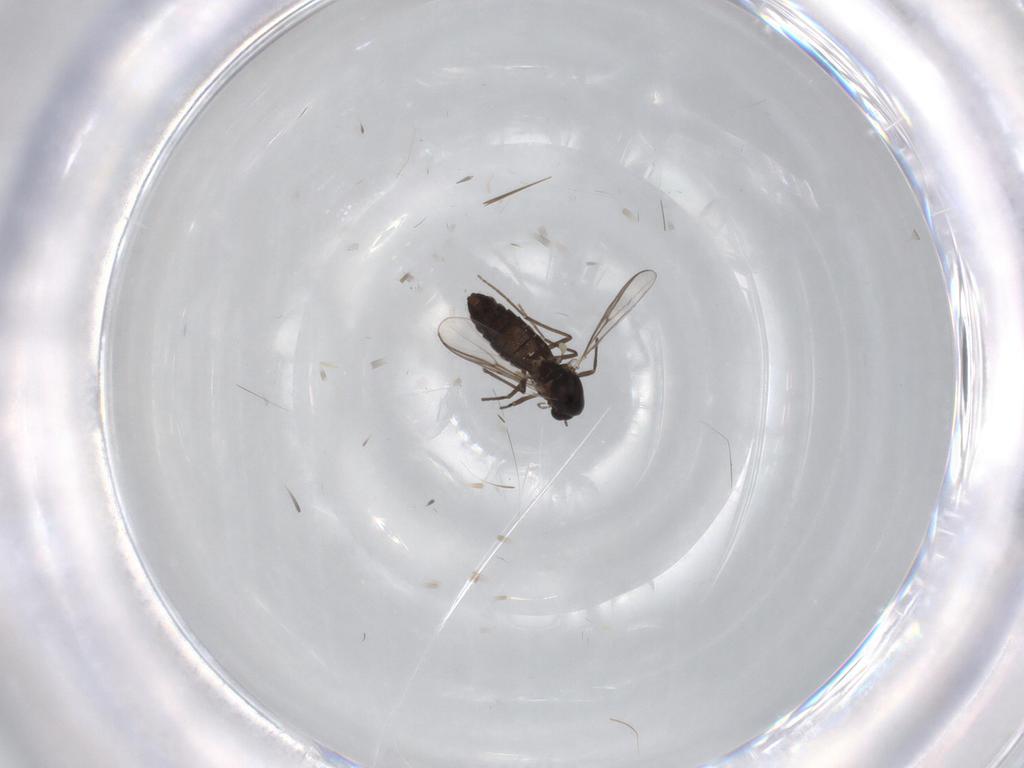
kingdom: Animalia
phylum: Arthropoda
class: Insecta
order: Diptera
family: Chironomidae
